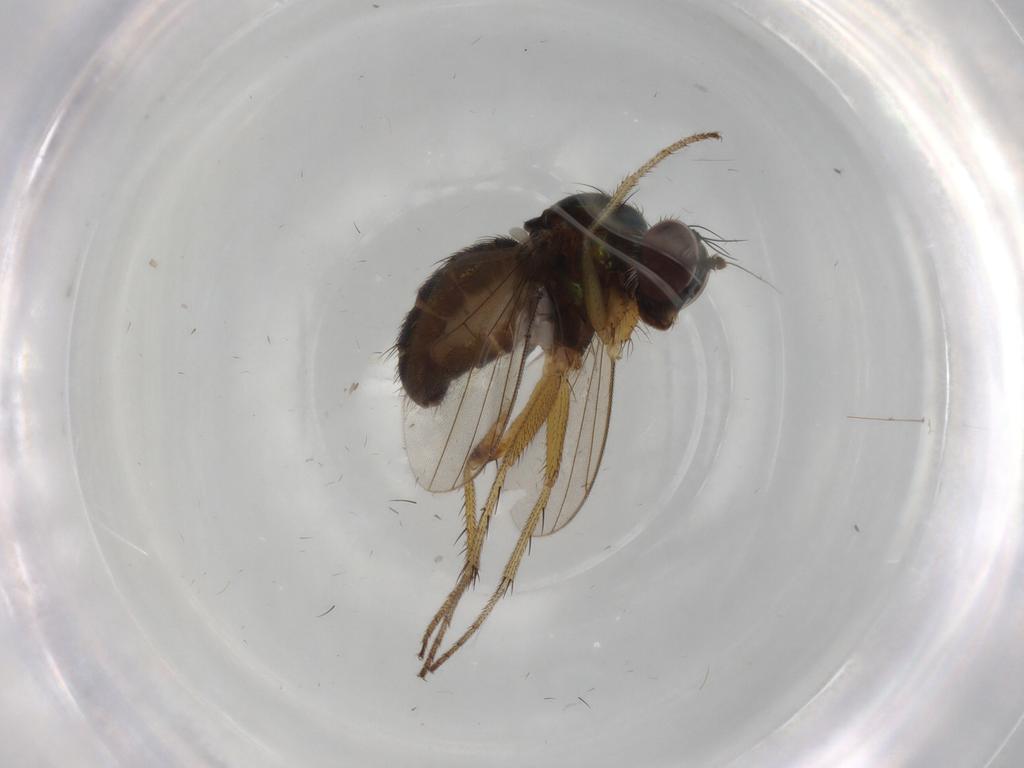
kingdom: Animalia
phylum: Arthropoda
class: Insecta
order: Diptera
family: Dolichopodidae
